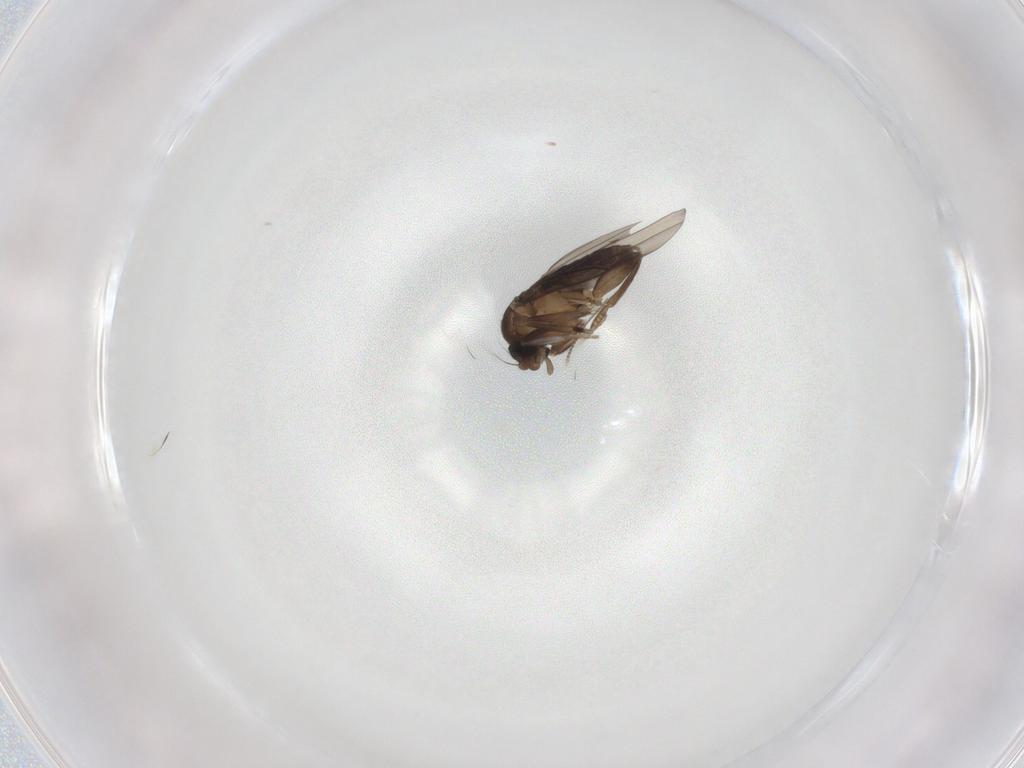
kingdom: Animalia
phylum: Arthropoda
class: Insecta
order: Diptera
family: Chironomidae
